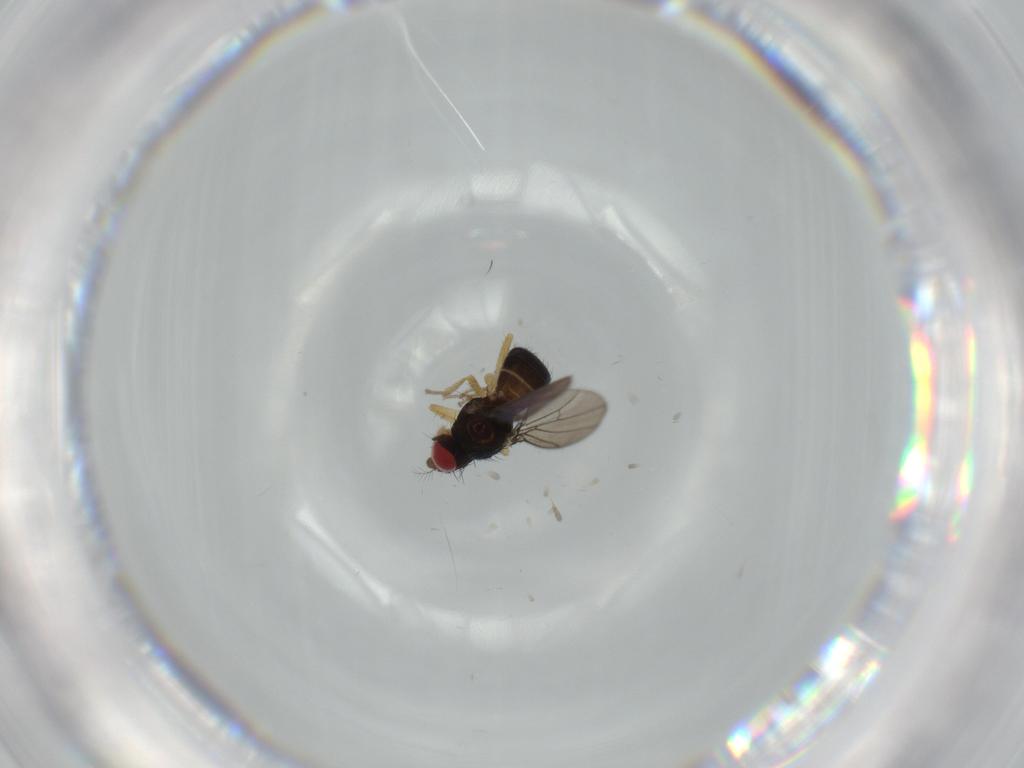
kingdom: Animalia
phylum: Arthropoda
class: Insecta
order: Diptera
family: Drosophilidae
